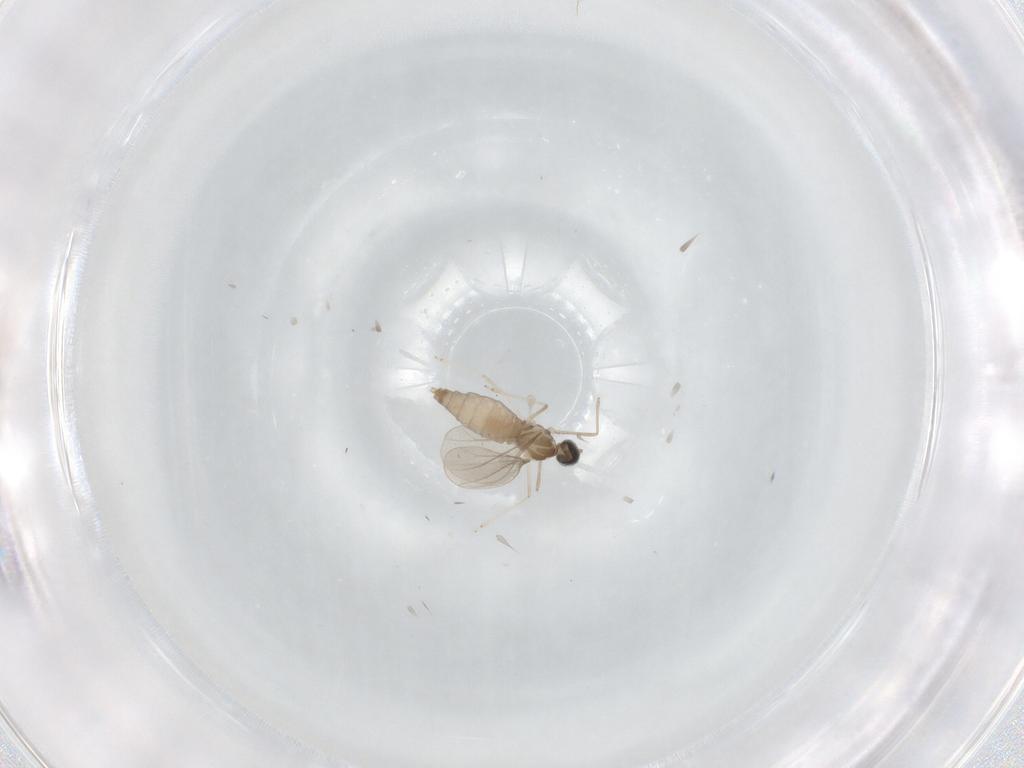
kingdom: Animalia
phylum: Arthropoda
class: Insecta
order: Diptera
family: Cecidomyiidae
